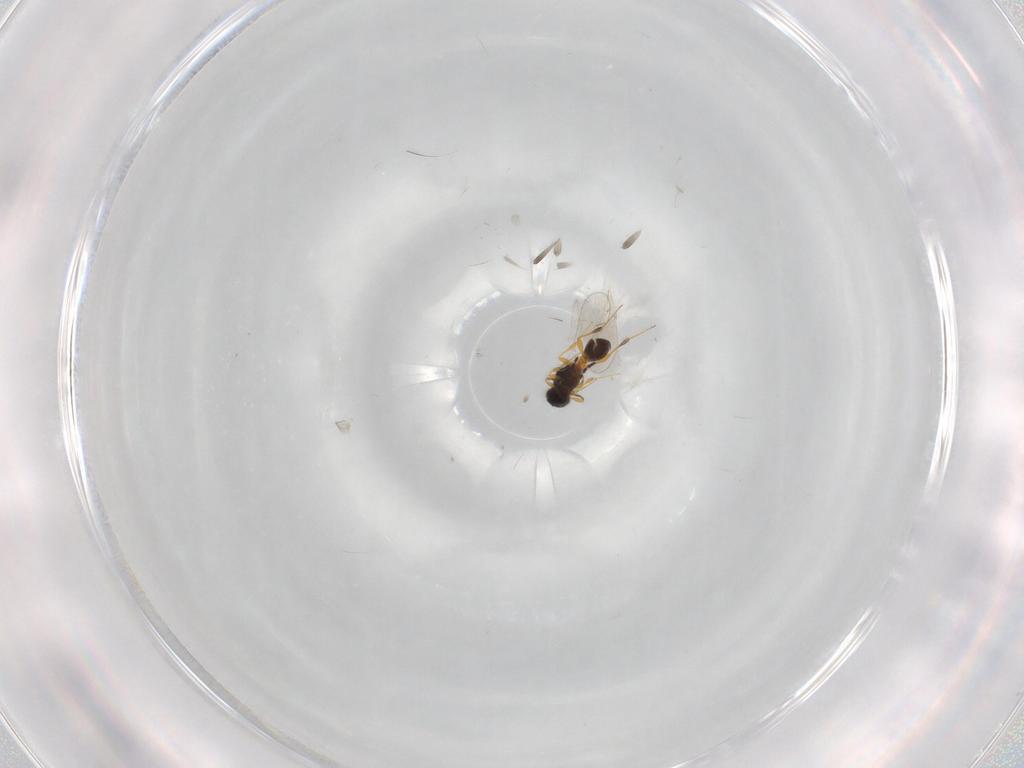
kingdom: Animalia
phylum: Arthropoda
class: Insecta
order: Hymenoptera
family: Platygastridae
